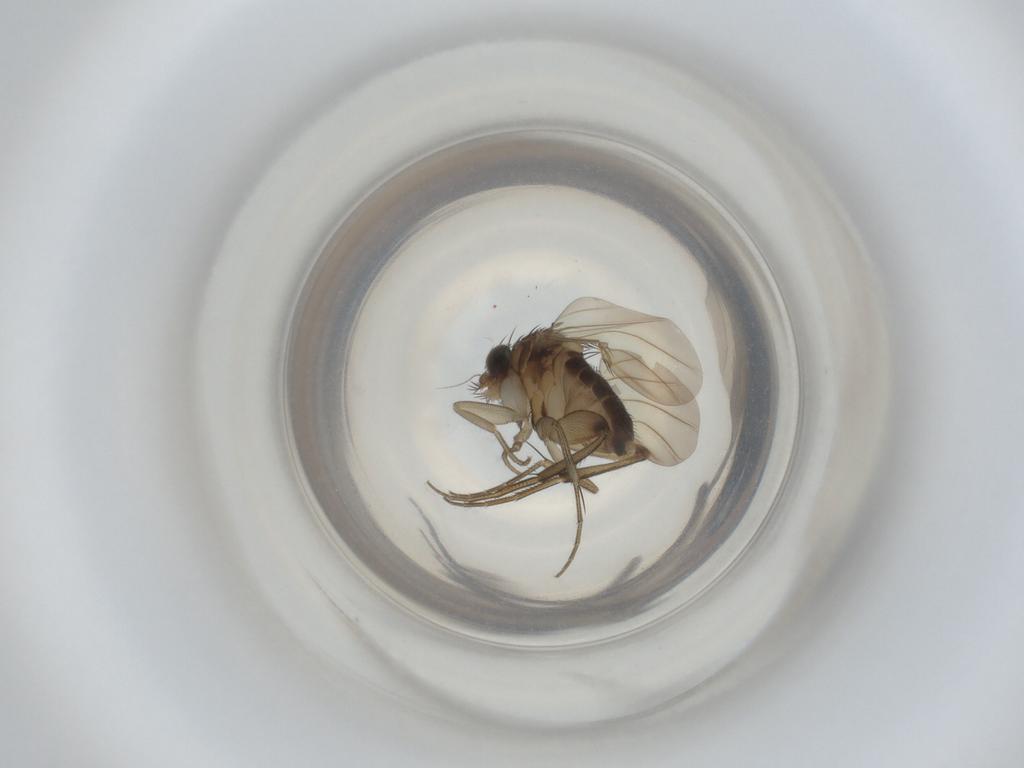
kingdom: Animalia
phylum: Arthropoda
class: Insecta
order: Diptera
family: Phoridae
